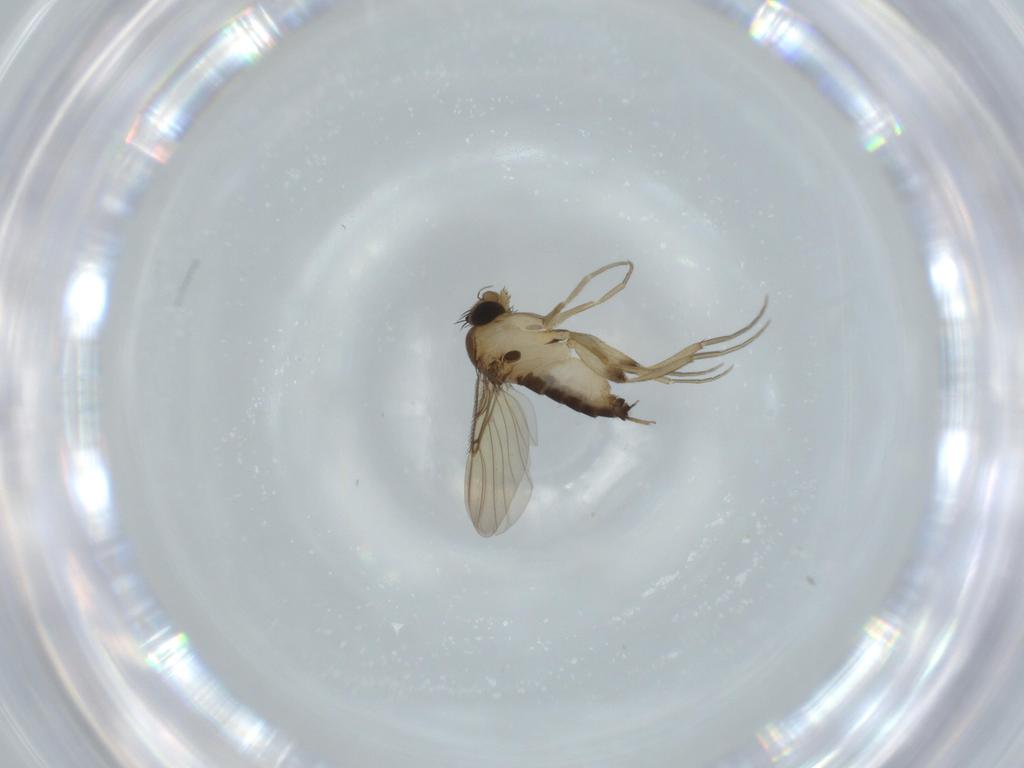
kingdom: Animalia
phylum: Arthropoda
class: Insecta
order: Diptera
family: Phoridae
